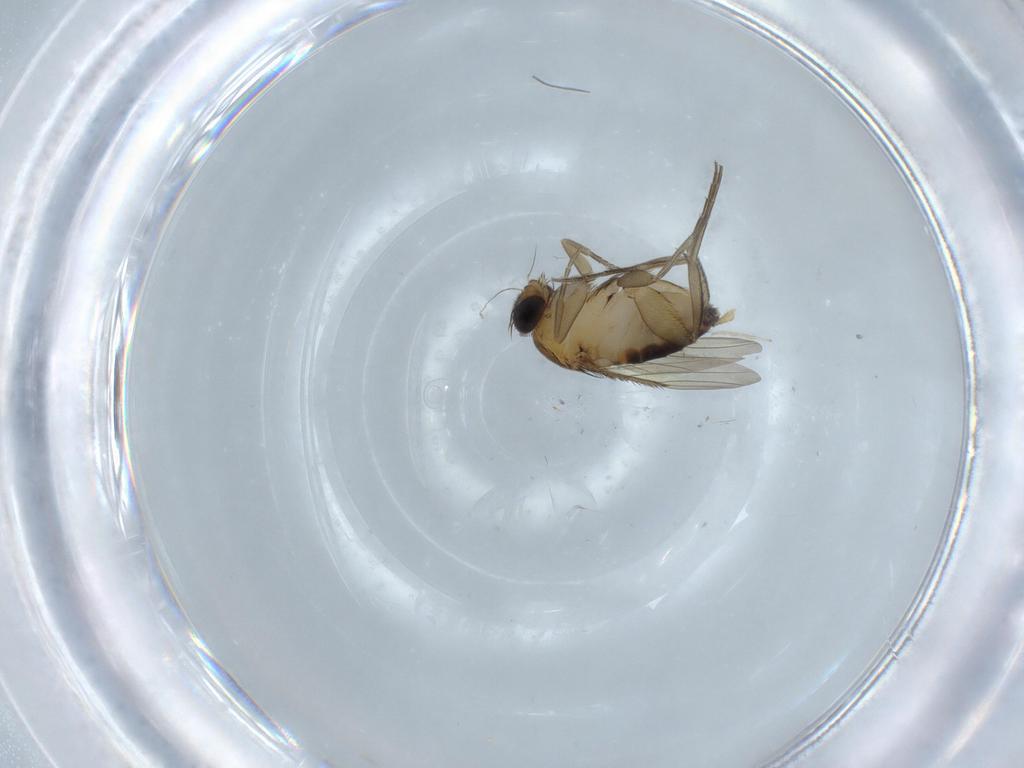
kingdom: Animalia
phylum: Arthropoda
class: Insecta
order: Diptera
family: Phoridae
